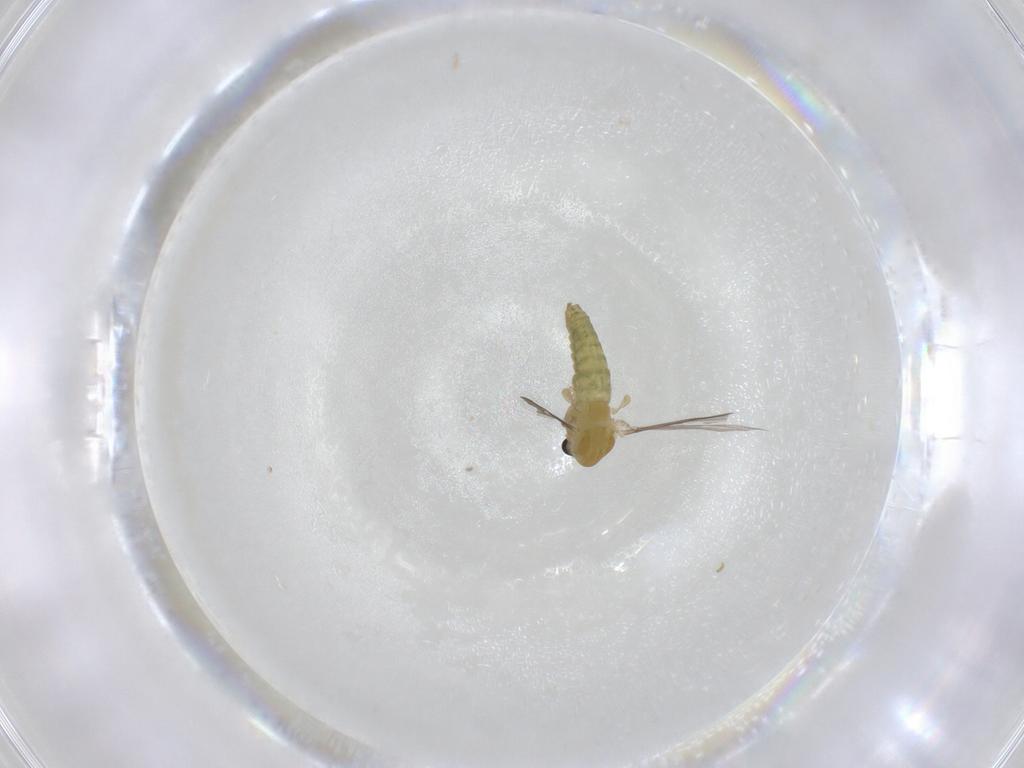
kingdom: Animalia
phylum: Arthropoda
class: Insecta
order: Diptera
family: Chironomidae
